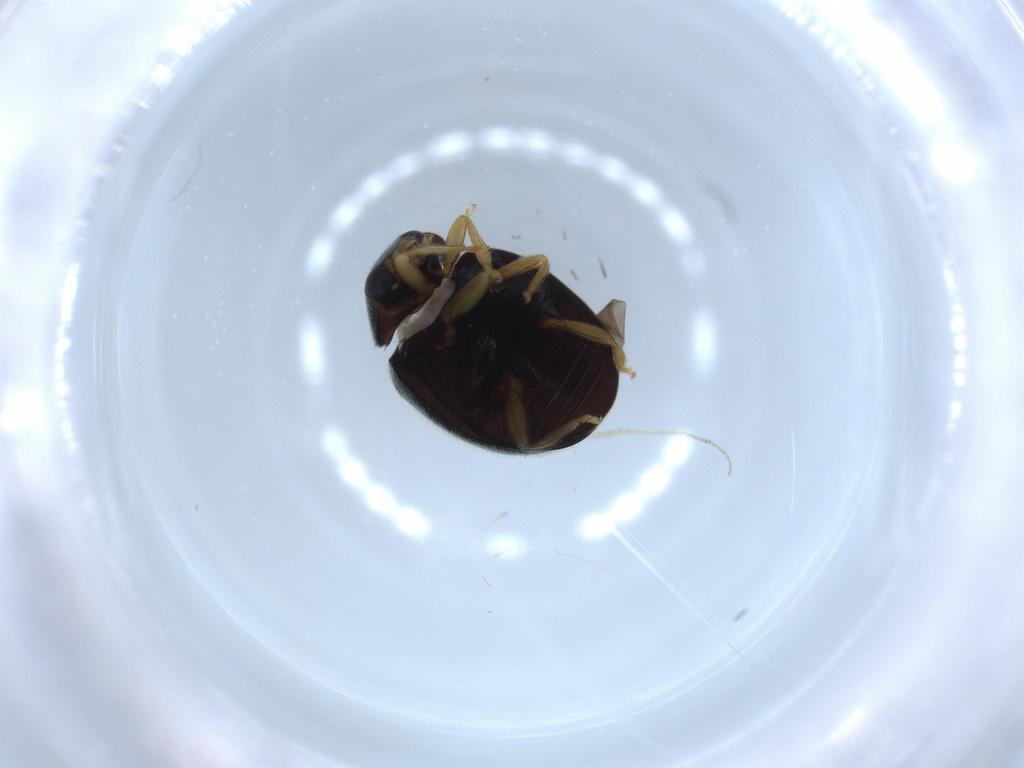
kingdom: Animalia
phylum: Arthropoda
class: Insecta
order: Coleoptera
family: Coccinellidae
